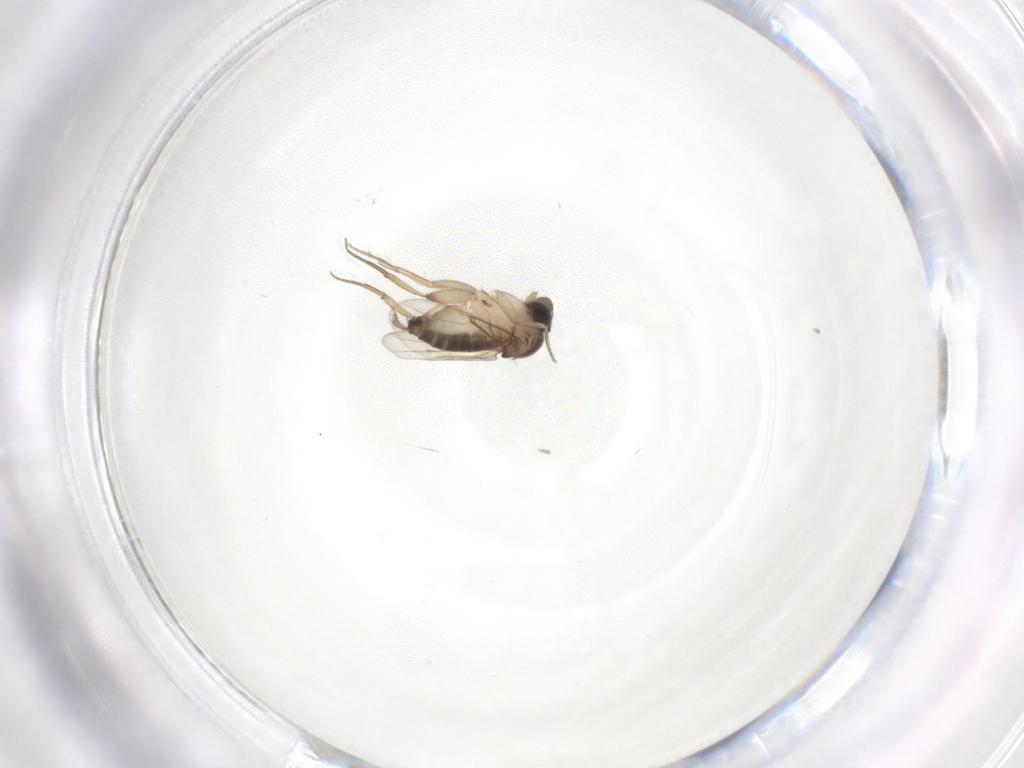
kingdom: Animalia
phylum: Arthropoda
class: Insecta
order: Diptera
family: Phoridae
